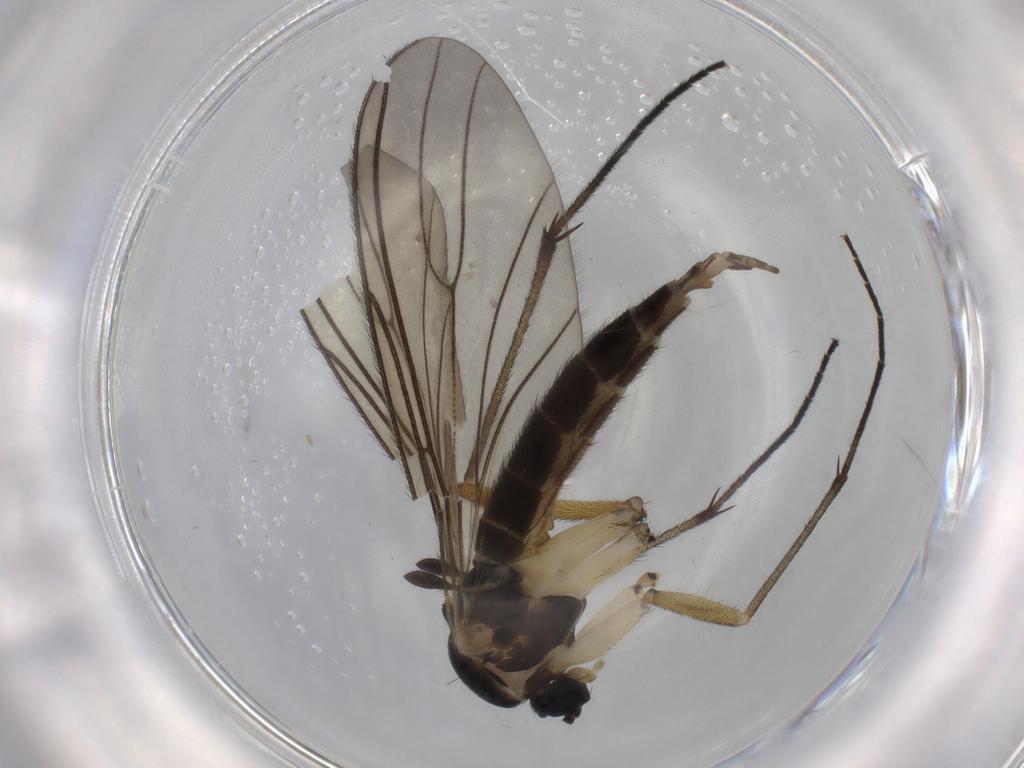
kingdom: Animalia
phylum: Arthropoda
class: Insecta
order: Diptera
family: Sciaridae
